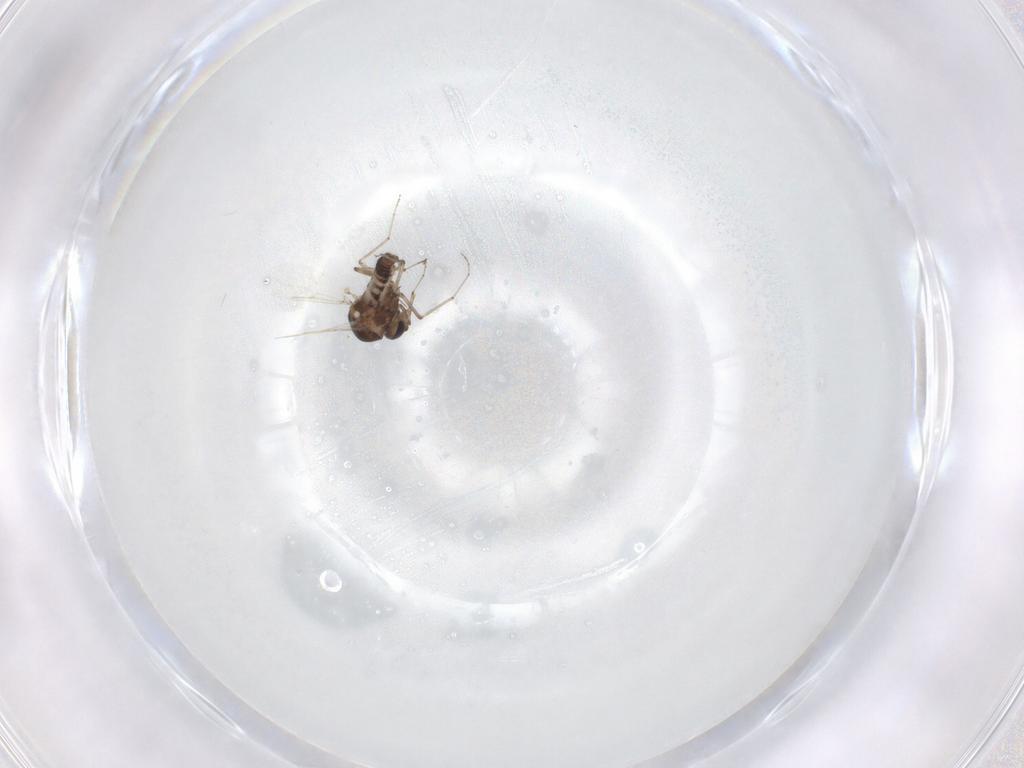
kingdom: Animalia
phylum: Arthropoda
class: Insecta
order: Diptera
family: Ceratopogonidae
